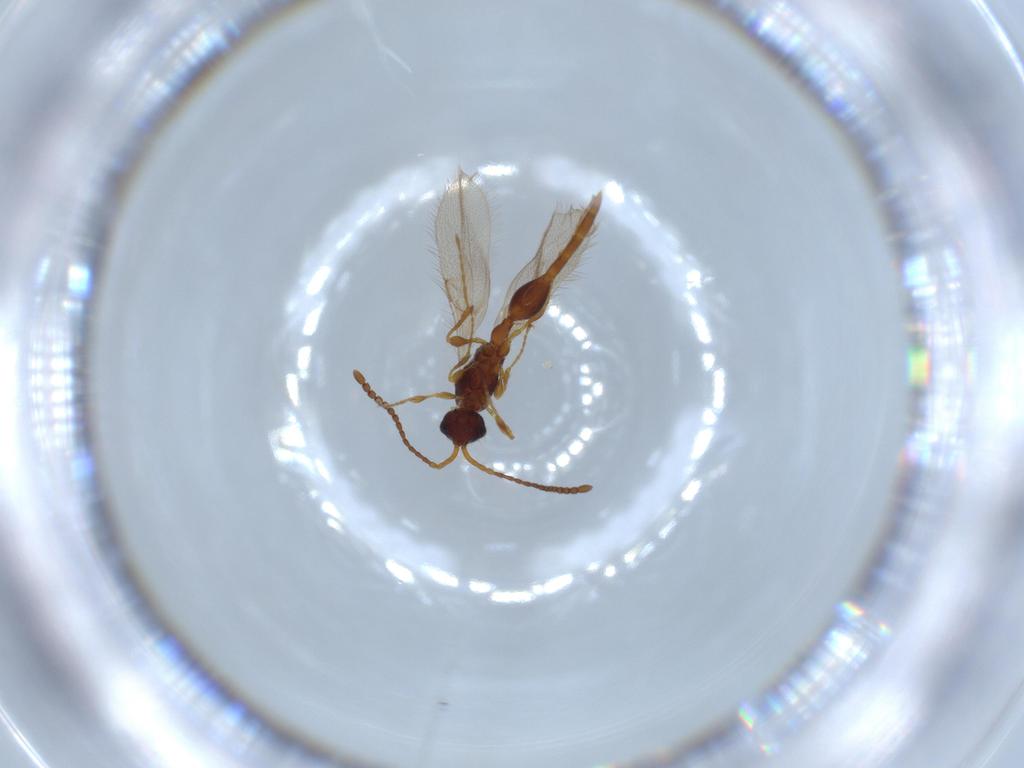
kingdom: Animalia
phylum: Arthropoda
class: Insecta
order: Hymenoptera
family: Diapriidae
